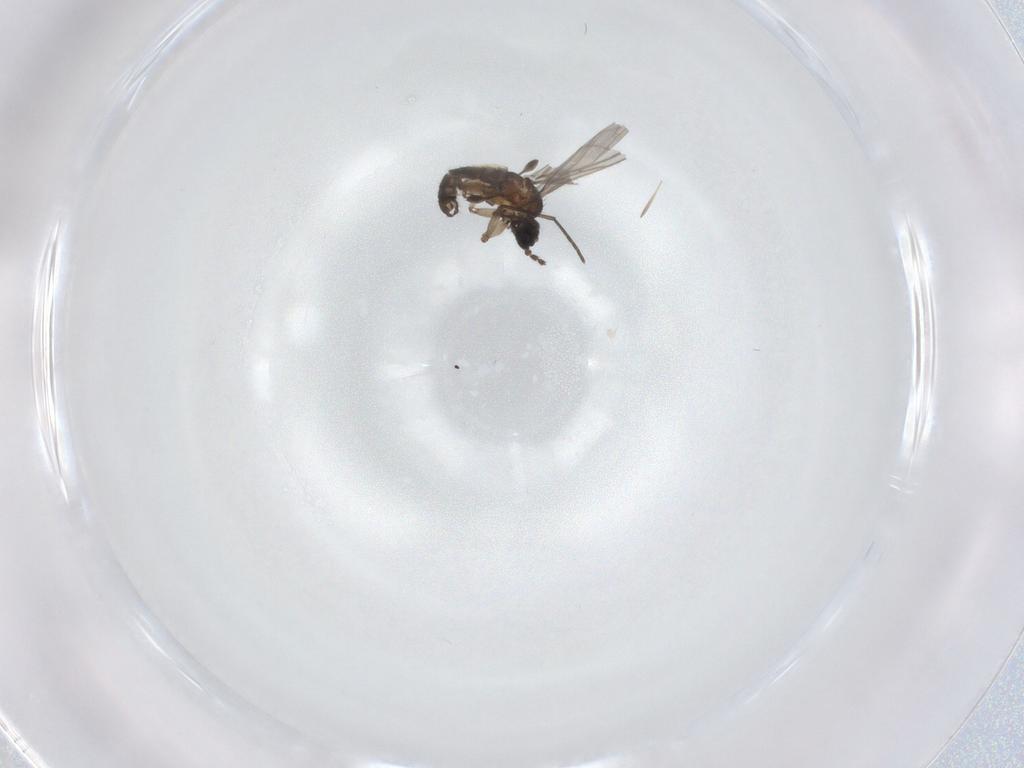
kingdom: Animalia
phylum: Arthropoda
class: Insecta
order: Diptera
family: Cecidomyiidae
